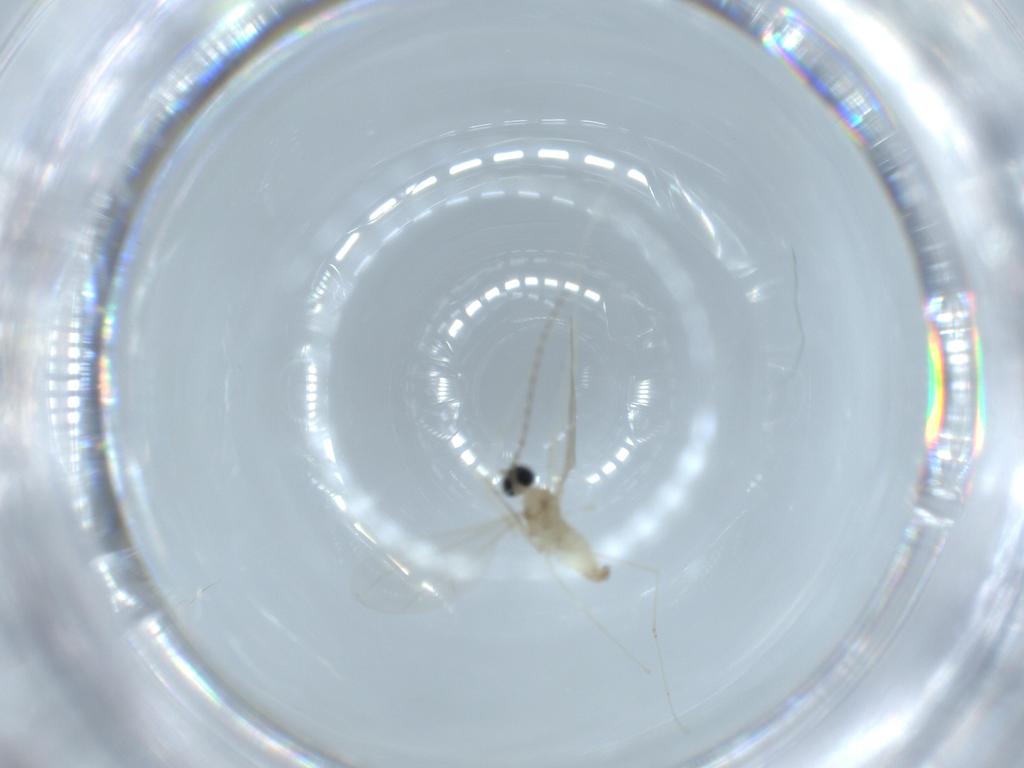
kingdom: Animalia
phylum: Arthropoda
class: Insecta
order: Diptera
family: Cecidomyiidae
